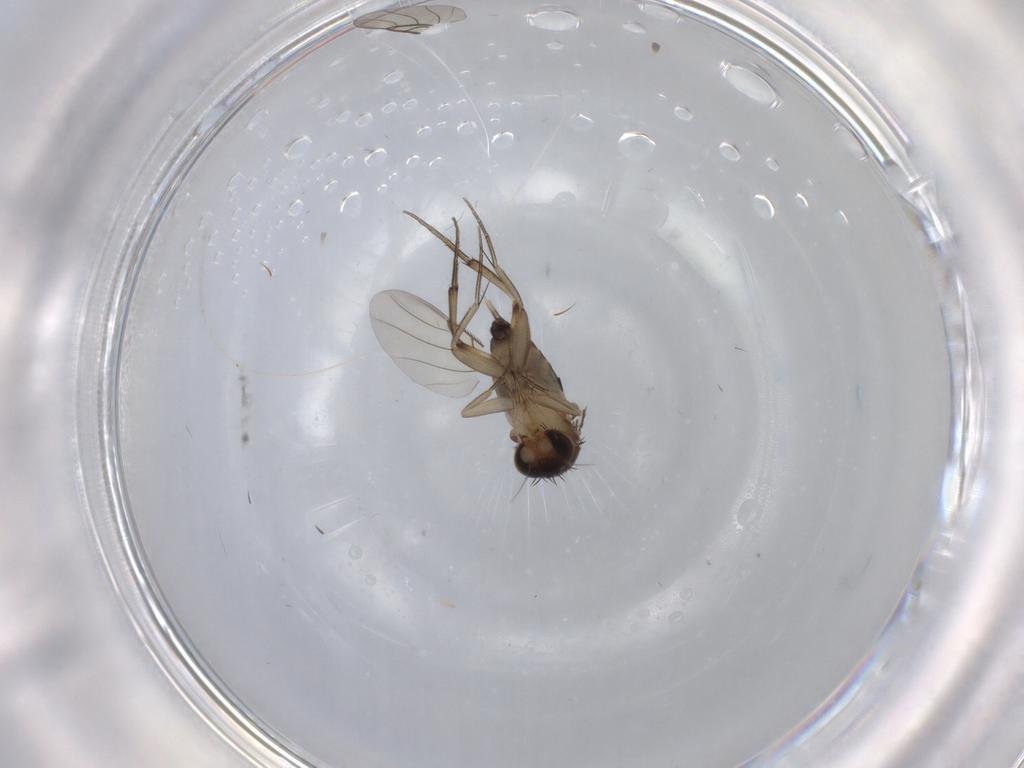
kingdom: Animalia
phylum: Arthropoda
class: Insecta
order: Diptera
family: Phoridae
